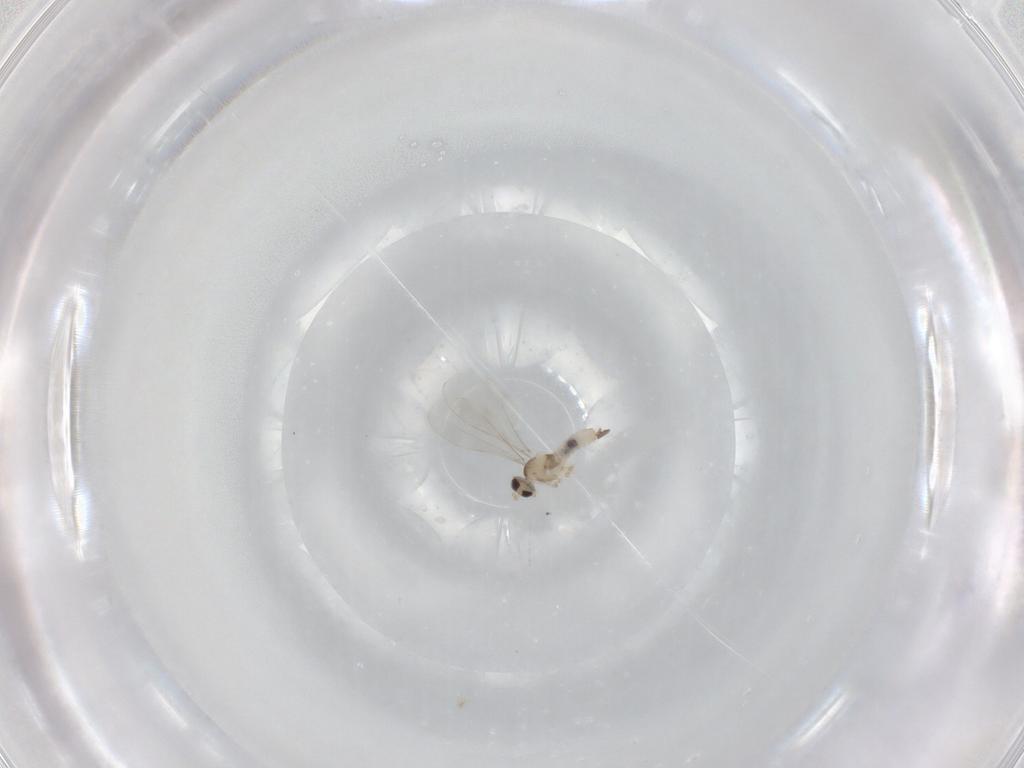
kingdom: Animalia
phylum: Arthropoda
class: Insecta
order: Diptera
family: Cecidomyiidae
